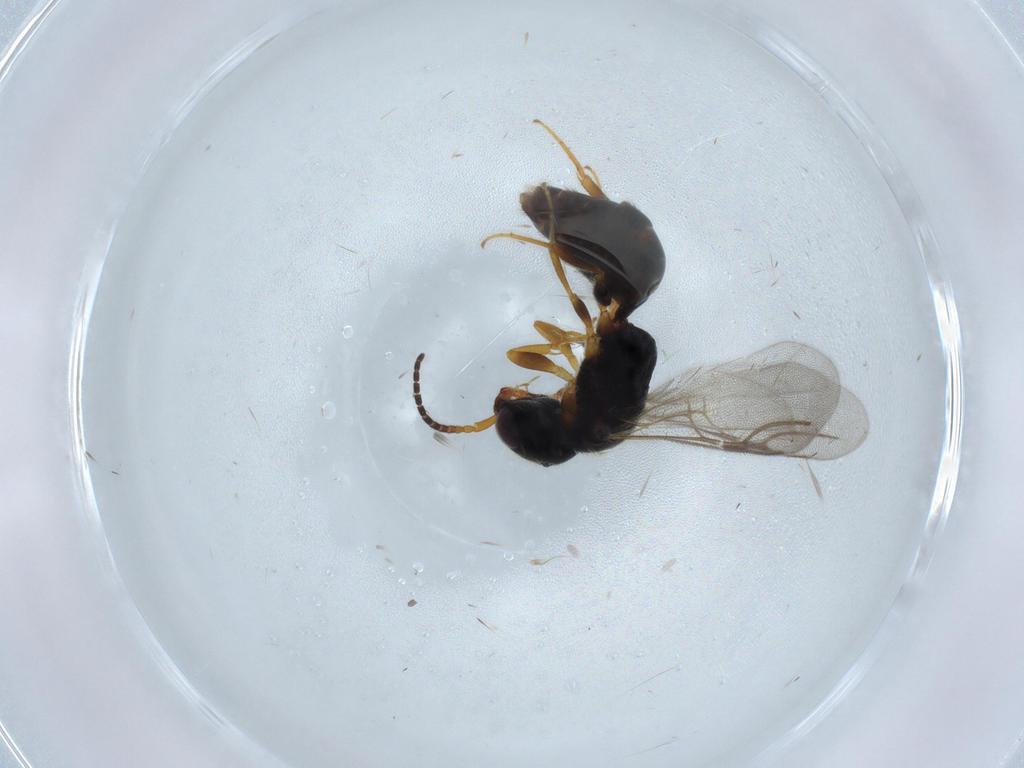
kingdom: Animalia
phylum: Arthropoda
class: Insecta
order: Hymenoptera
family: Bethylidae
